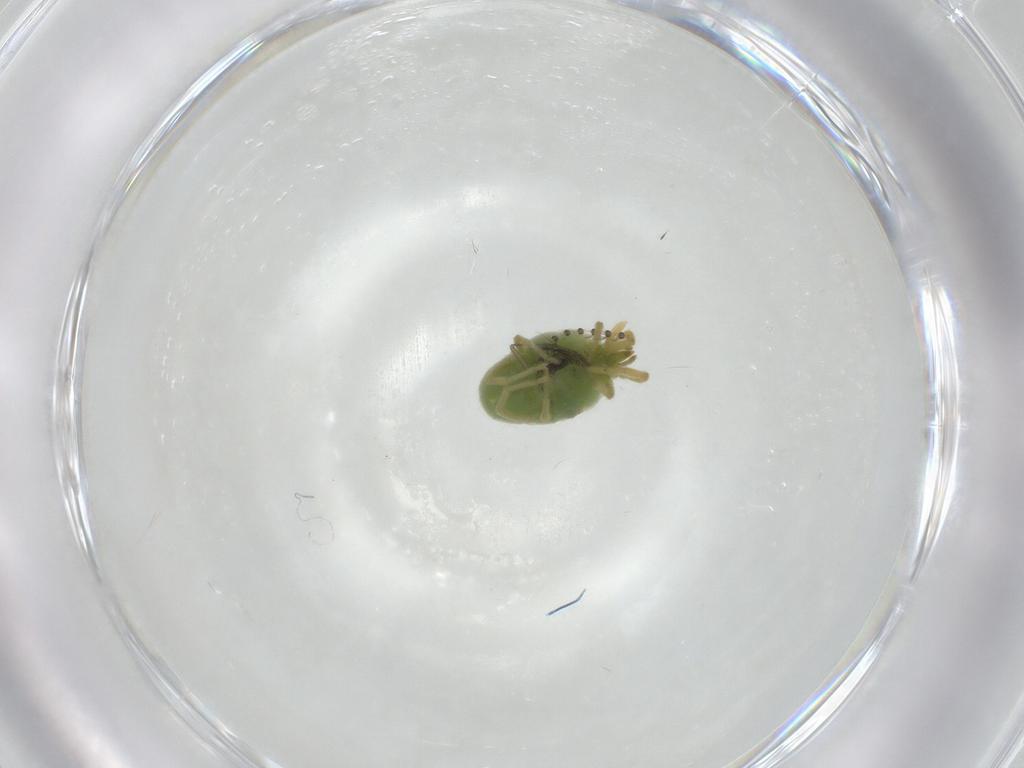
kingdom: Animalia
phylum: Arthropoda
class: Arachnida
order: Trombidiformes
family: Erythraeidae
